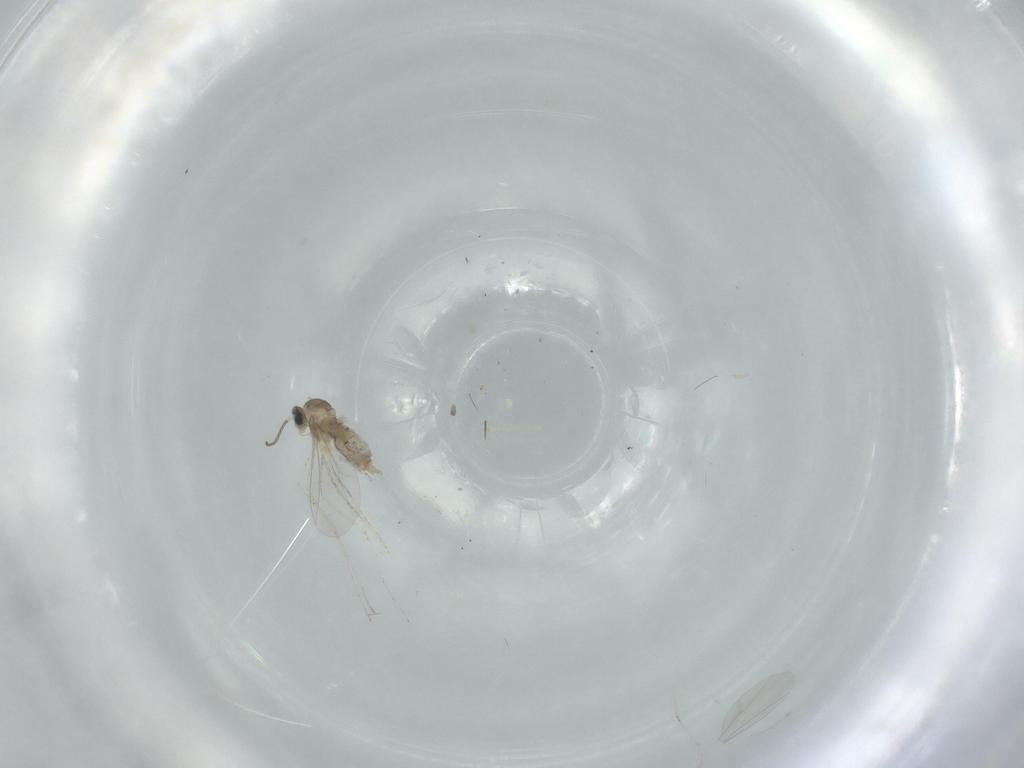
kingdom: Animalia
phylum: Arthropoda
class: Insecta
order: Diptera
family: Cecidomyiidae
